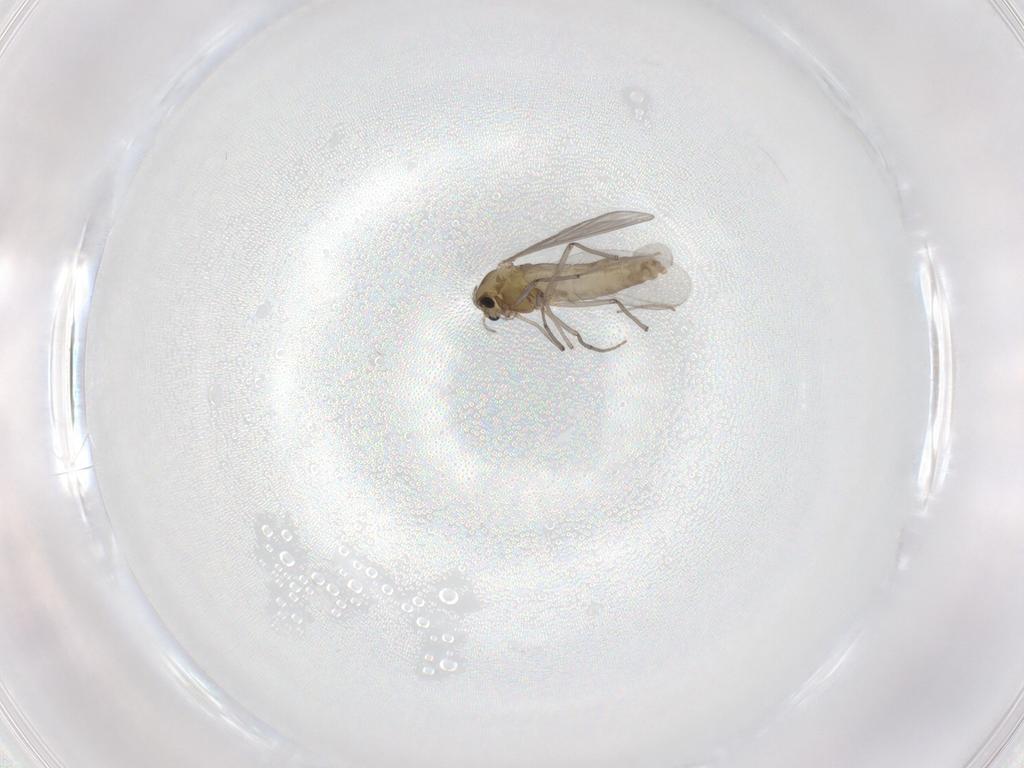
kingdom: Animalia
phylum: Arthropoda
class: Insecta
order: Diptera
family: Chironomidae
